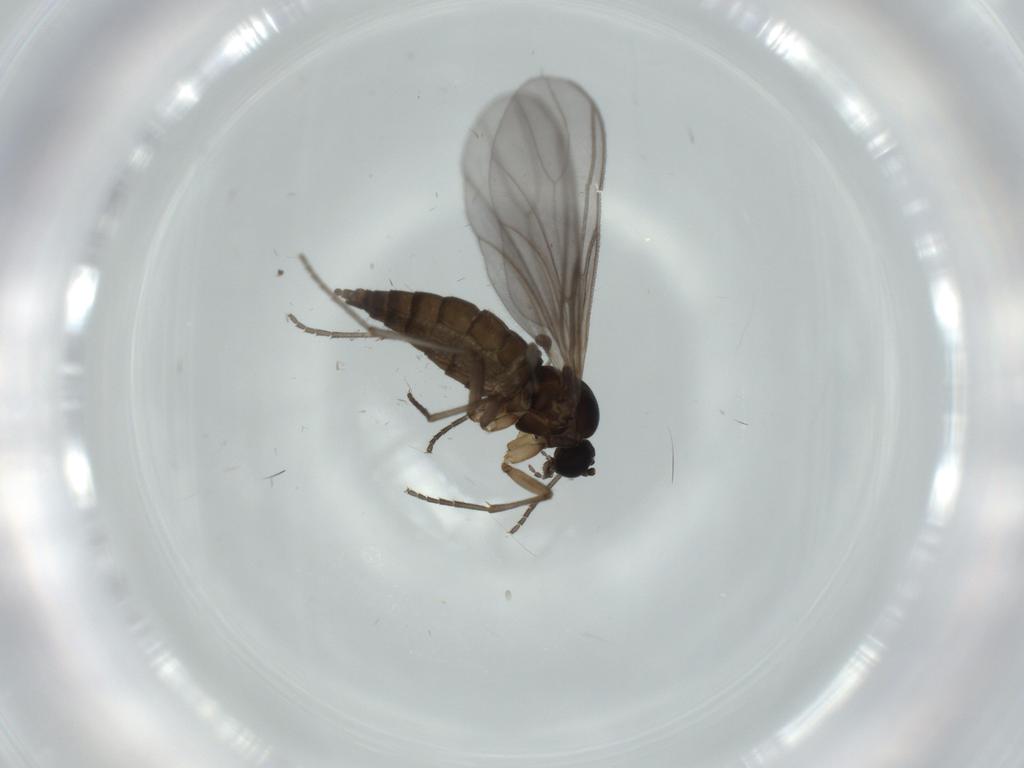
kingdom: Animalia
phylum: Arthropoda
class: Insecta
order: Diptera
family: Sciaridae
